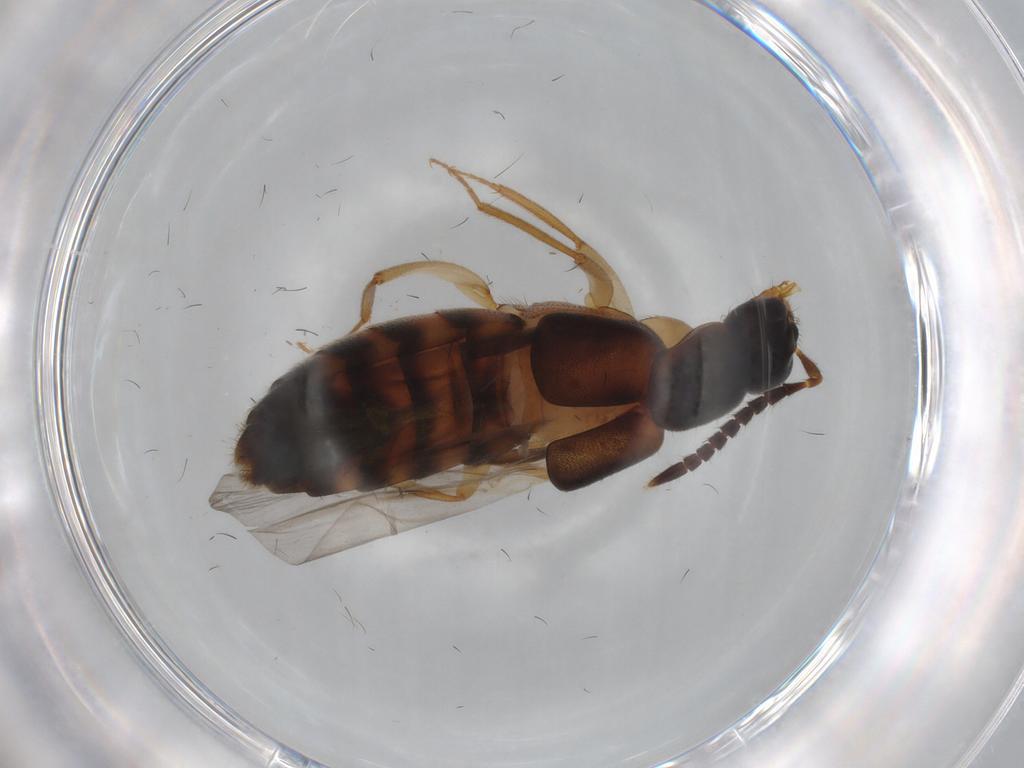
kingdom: Animalia
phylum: Arthropoda
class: Insecta
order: Coleoptera
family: Staphylinidae
